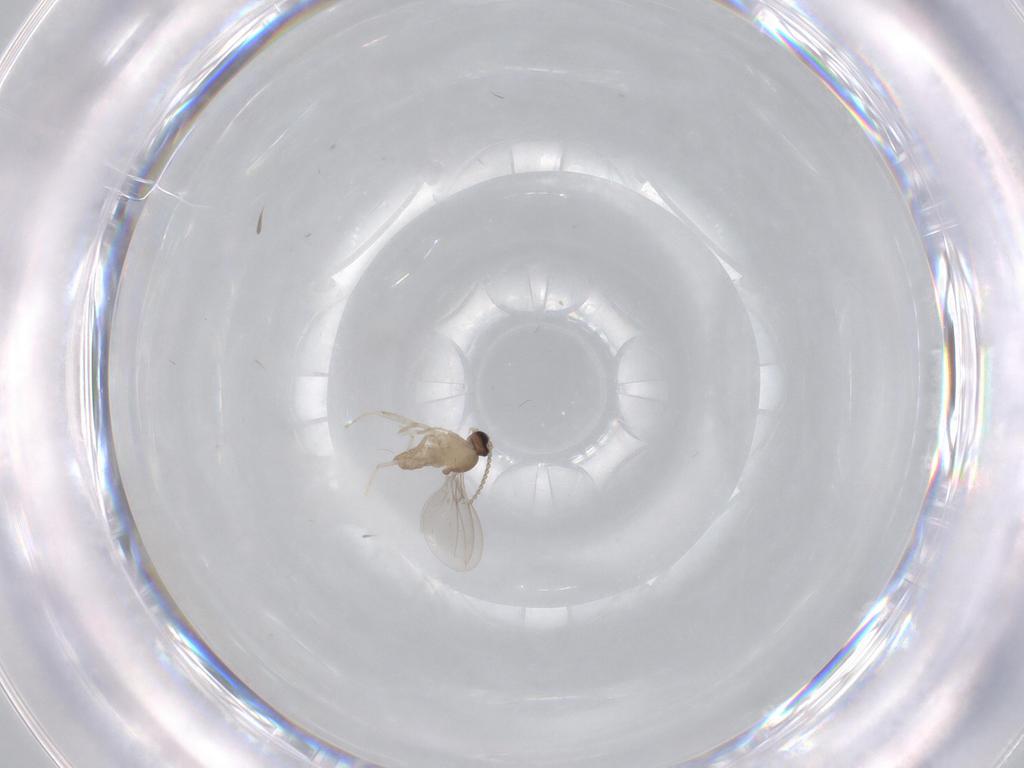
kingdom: Animalia
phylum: Arthropoda
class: Insecta
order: Diptera
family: Cecidomyiidae
